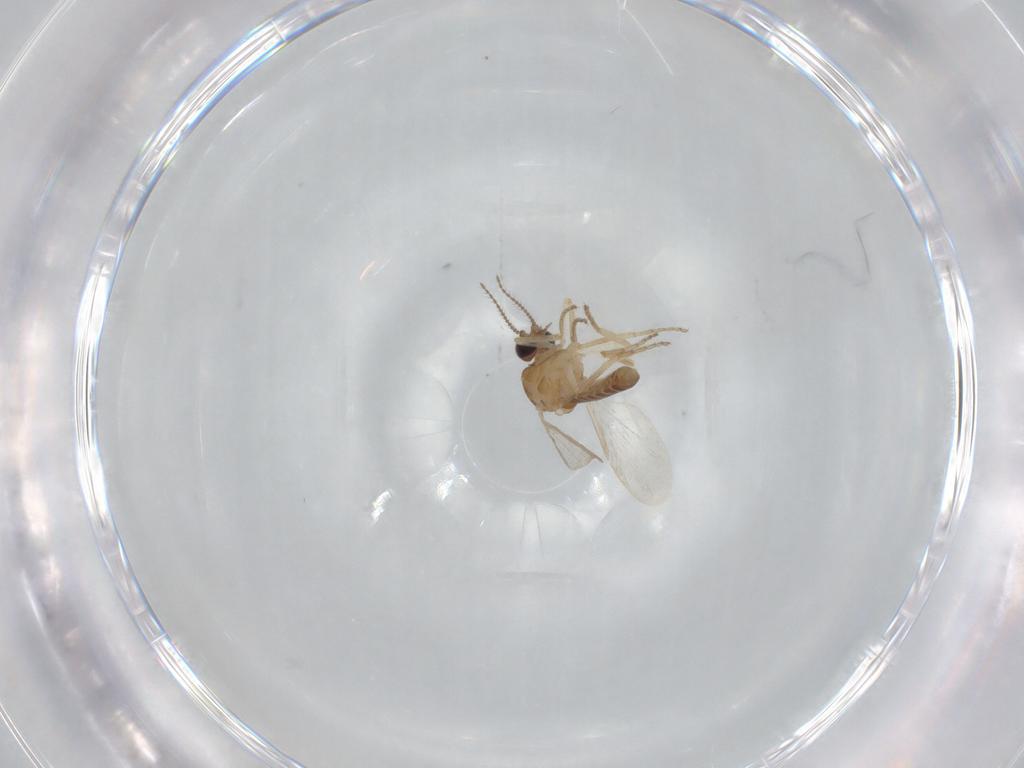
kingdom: Animalia
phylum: Arthropoda
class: Insecta
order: Diptera
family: Ceratopogonidae
